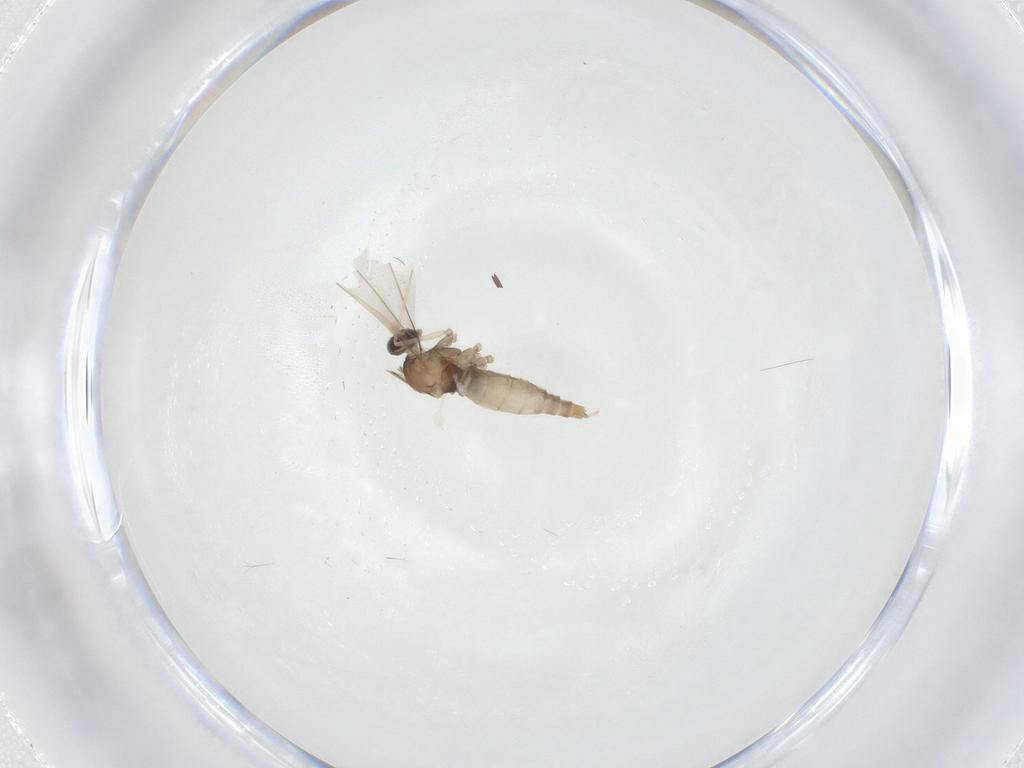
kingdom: Animalia
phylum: Arthropoda
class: Insecta
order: Diptera
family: Cecidomyiidae
